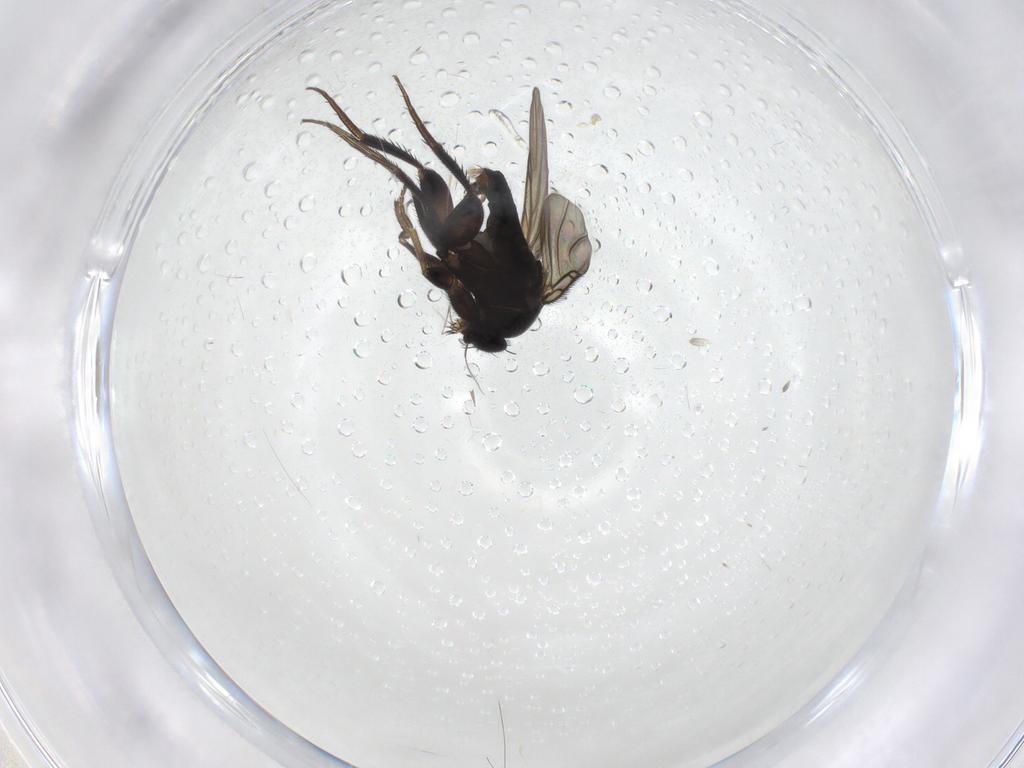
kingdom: Animalia
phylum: Arthropoda
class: Insecta
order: Diptera
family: Phoridae
